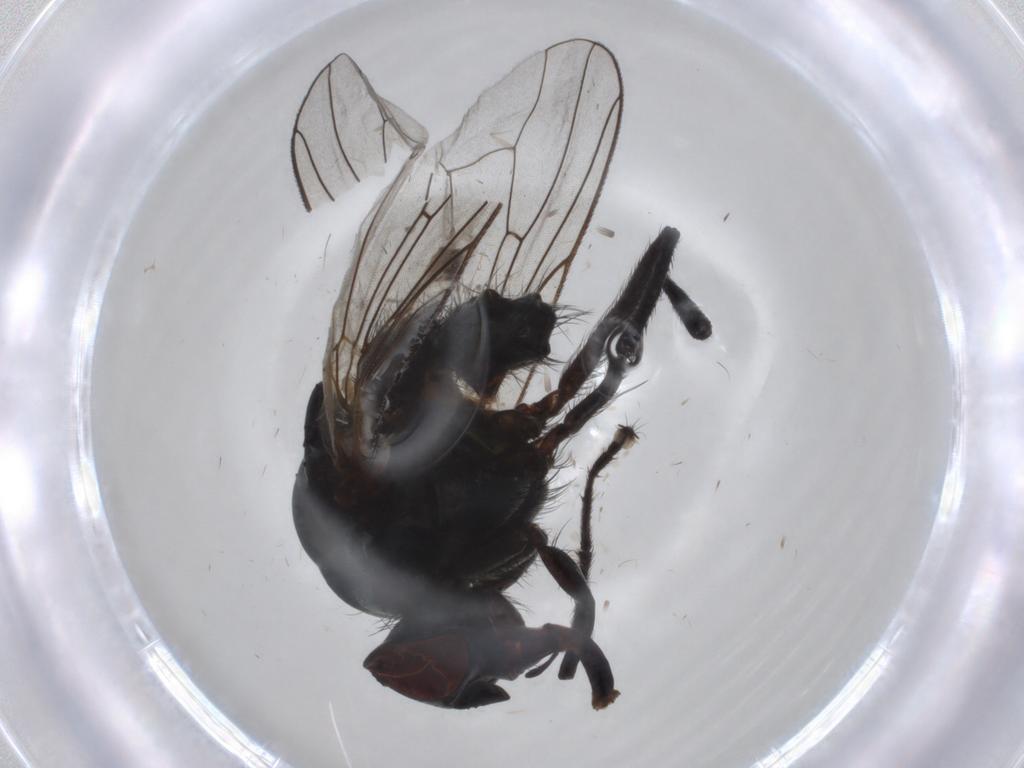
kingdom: Animalia
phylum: Arthropoda
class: Insecta
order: Diptera
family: Anthomyiidae
